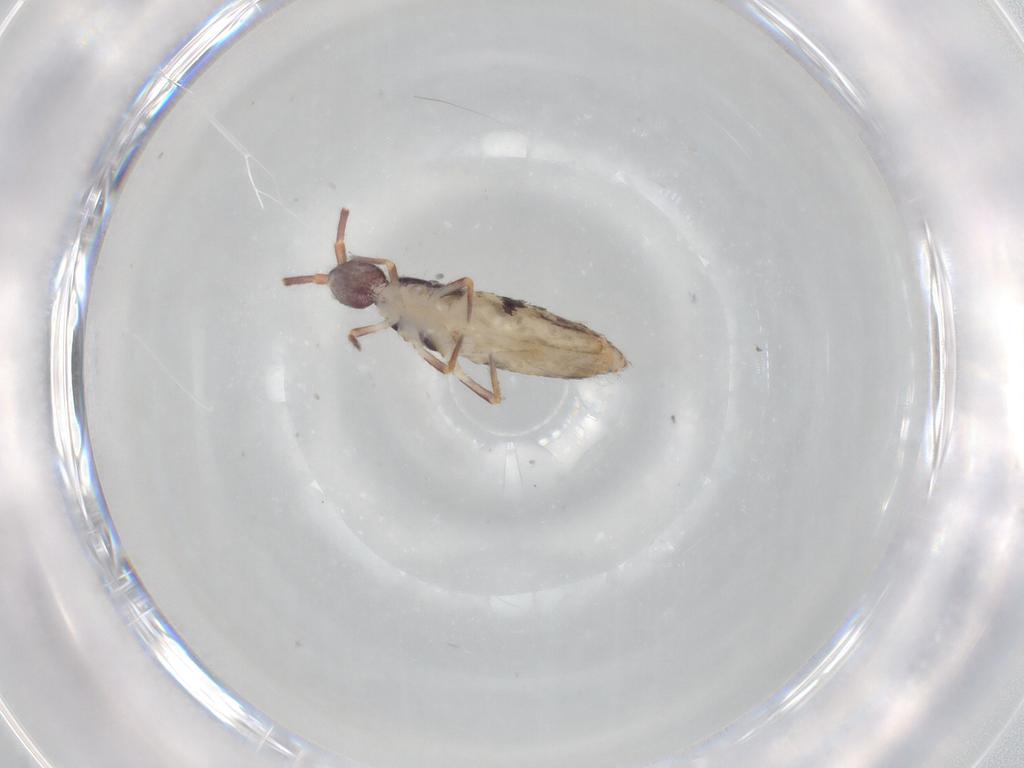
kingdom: Animalia
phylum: Arthropoda
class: Collembola
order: Entomobryomorpha
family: Entomobryidae
